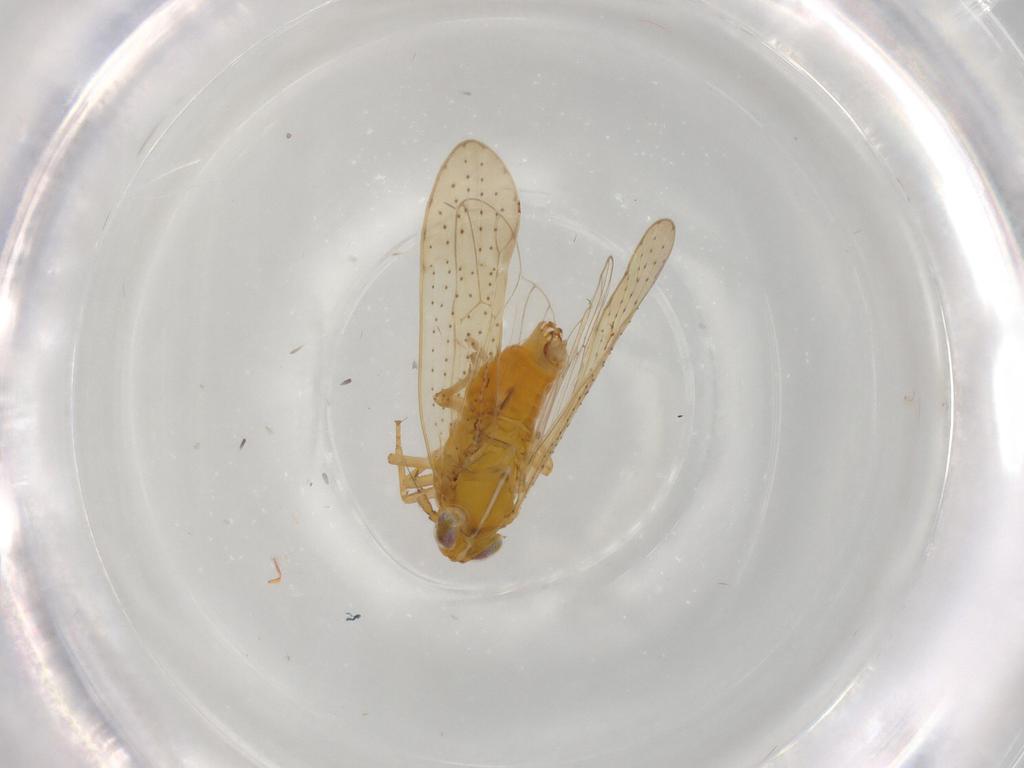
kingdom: Animalia
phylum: Arthropoda
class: Insecta
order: Hemiptera
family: Delphacidae
